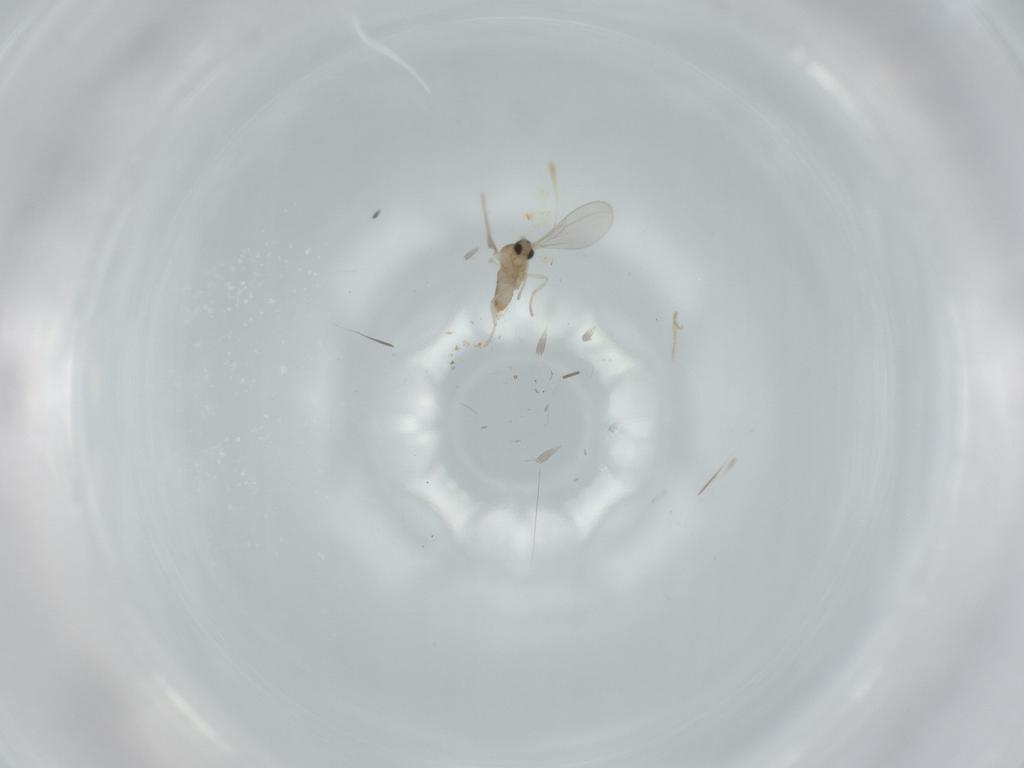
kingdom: Animalia
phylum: Arthropoda
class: Insecta
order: Diptera
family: Cecidomyiidae
